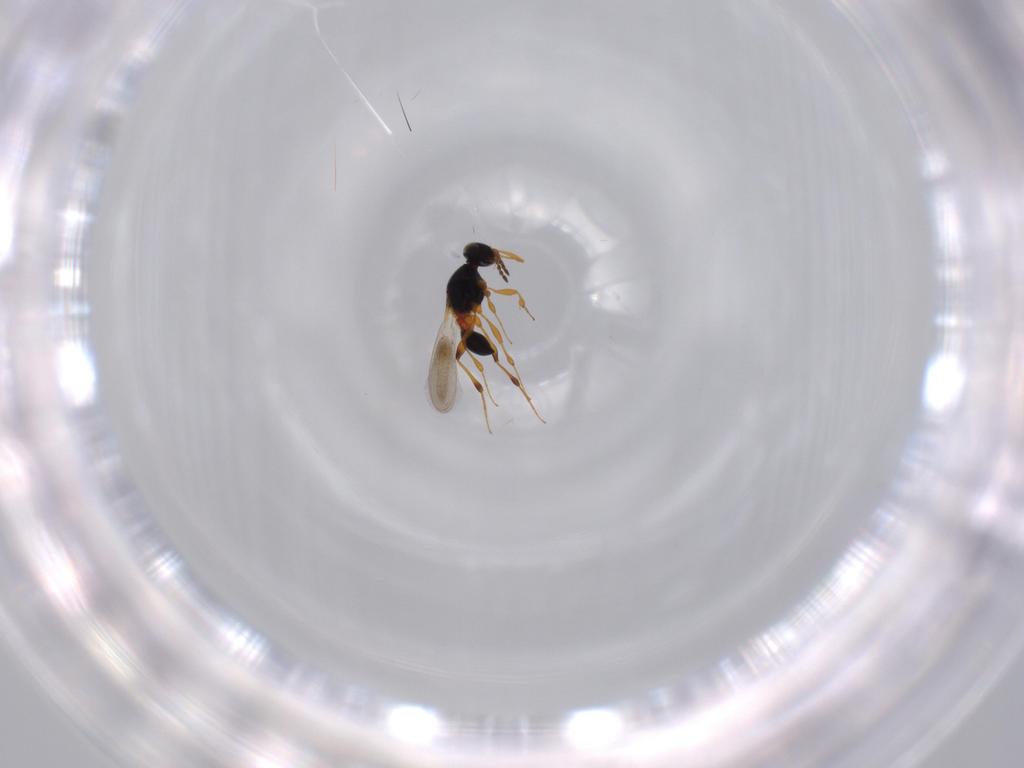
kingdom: Animalia
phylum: Arthropoda
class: Insecta
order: Hymenoptera
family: Platygastridae
